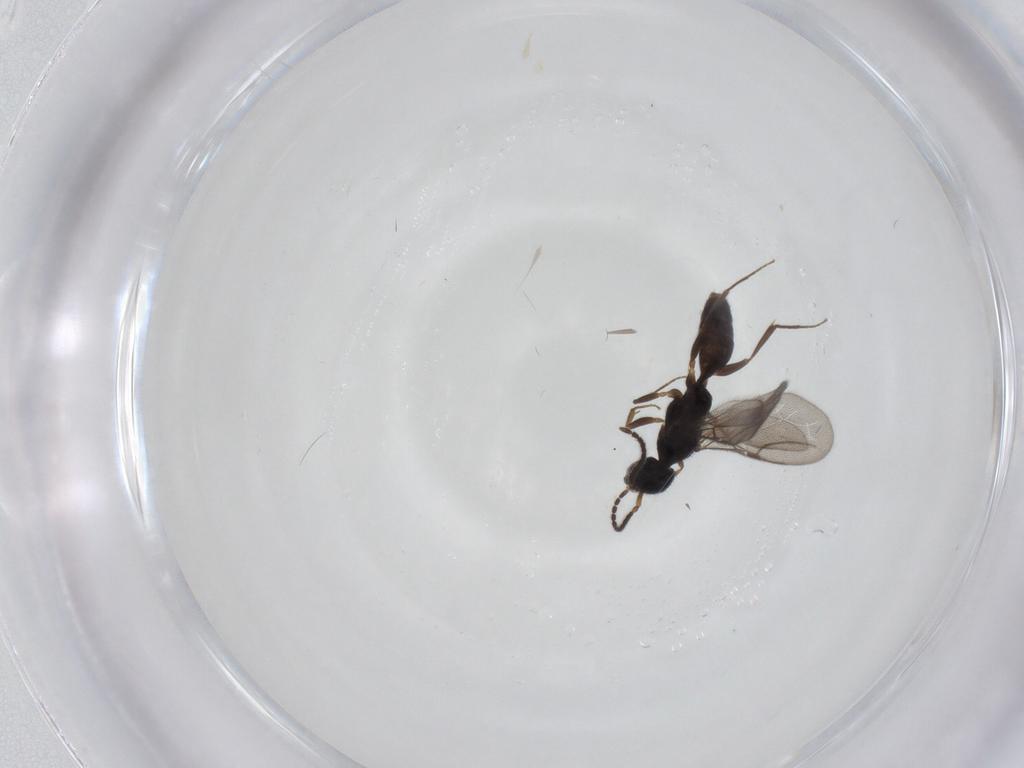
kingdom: Animalia
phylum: Arthropoda
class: Insecta
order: Hymenoptera
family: Bethylidae
